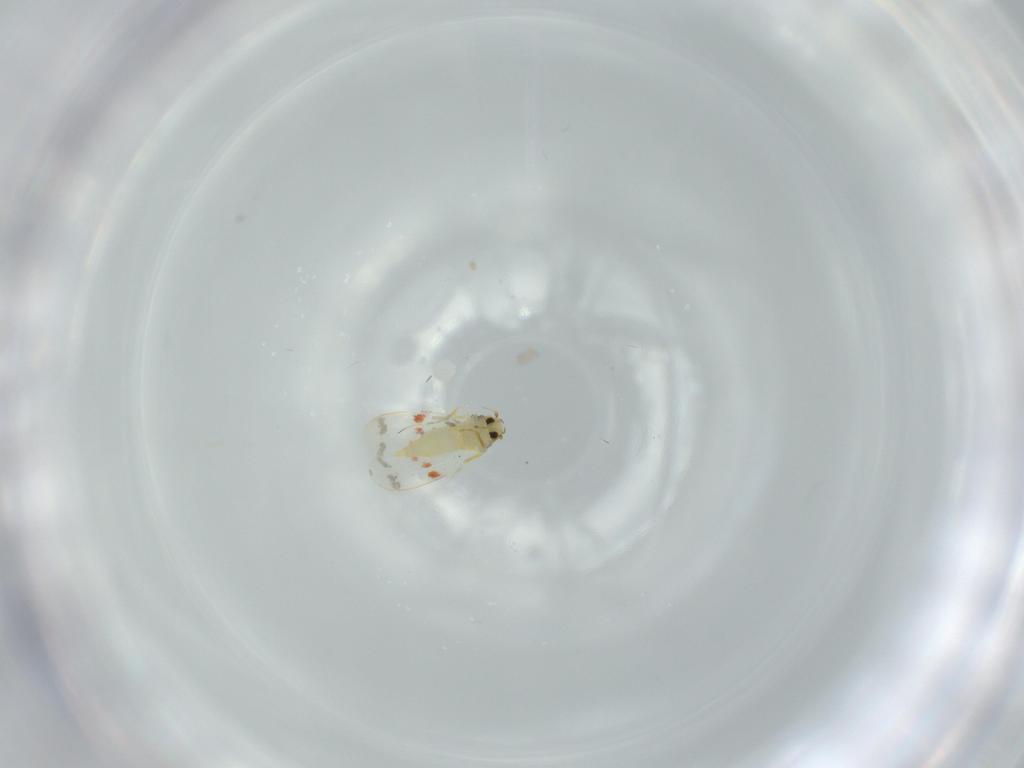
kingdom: Animalia
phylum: Arthropoda
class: Insecta
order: Hemiptera
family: Aleyrodidae
